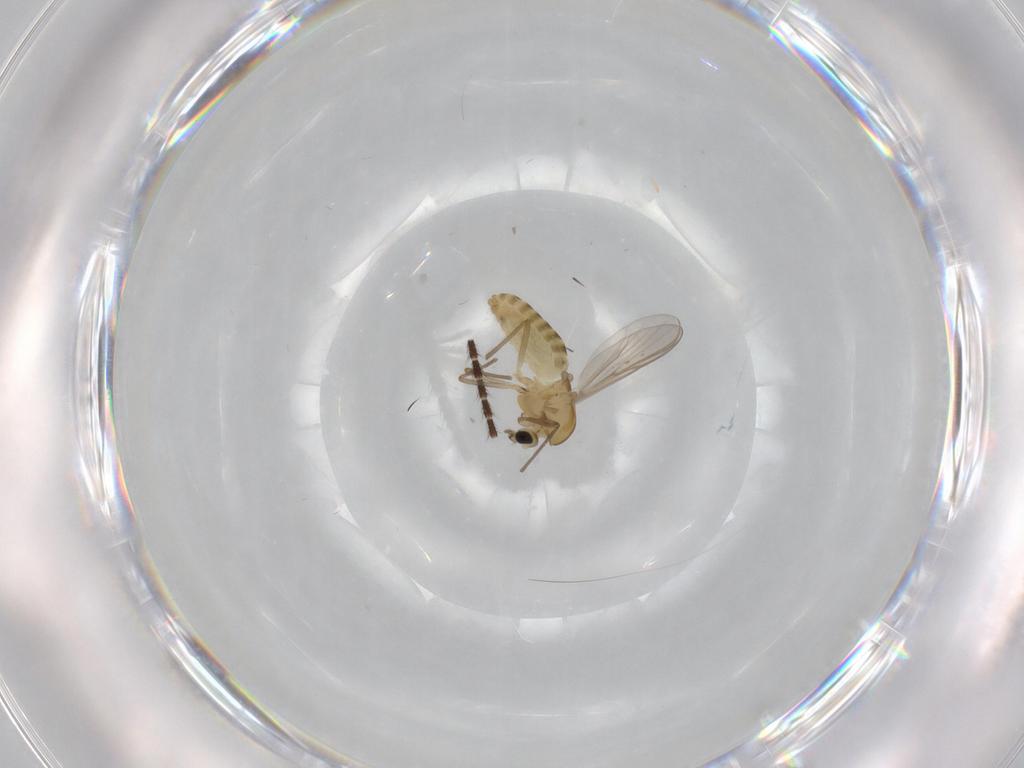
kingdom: Animalia
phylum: Arthropoda
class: Insecta
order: Diptera
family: Chironomidae
